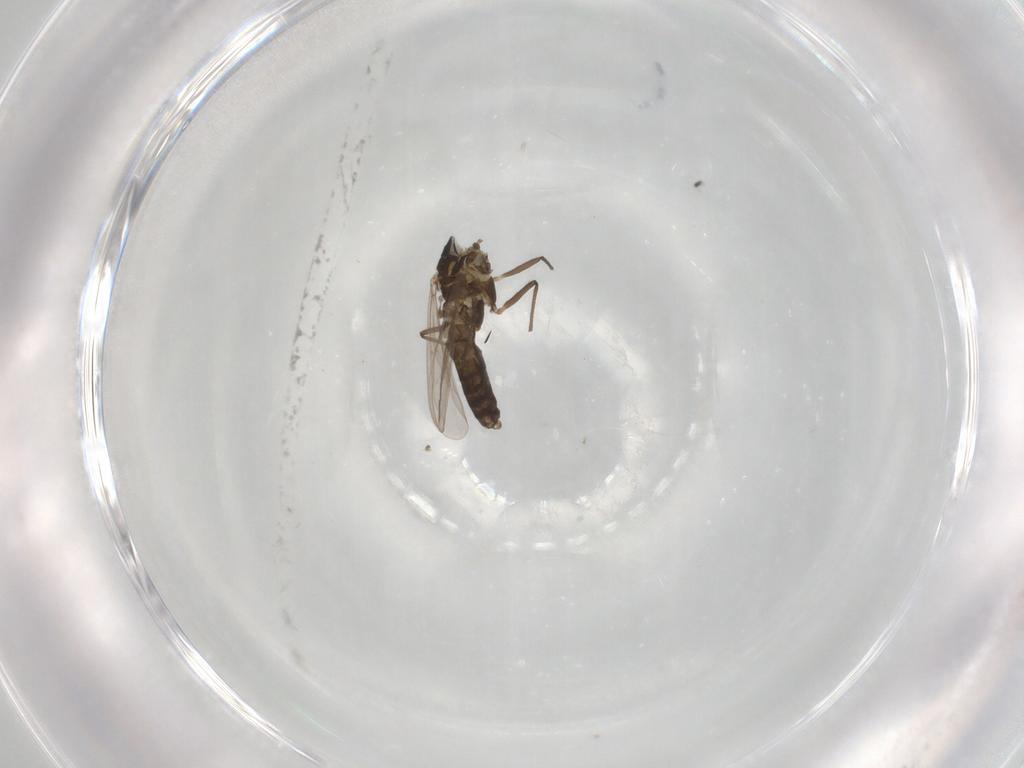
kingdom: Animalia
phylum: Arthropoda
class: Insecta
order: Diptera
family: Chironomidae
